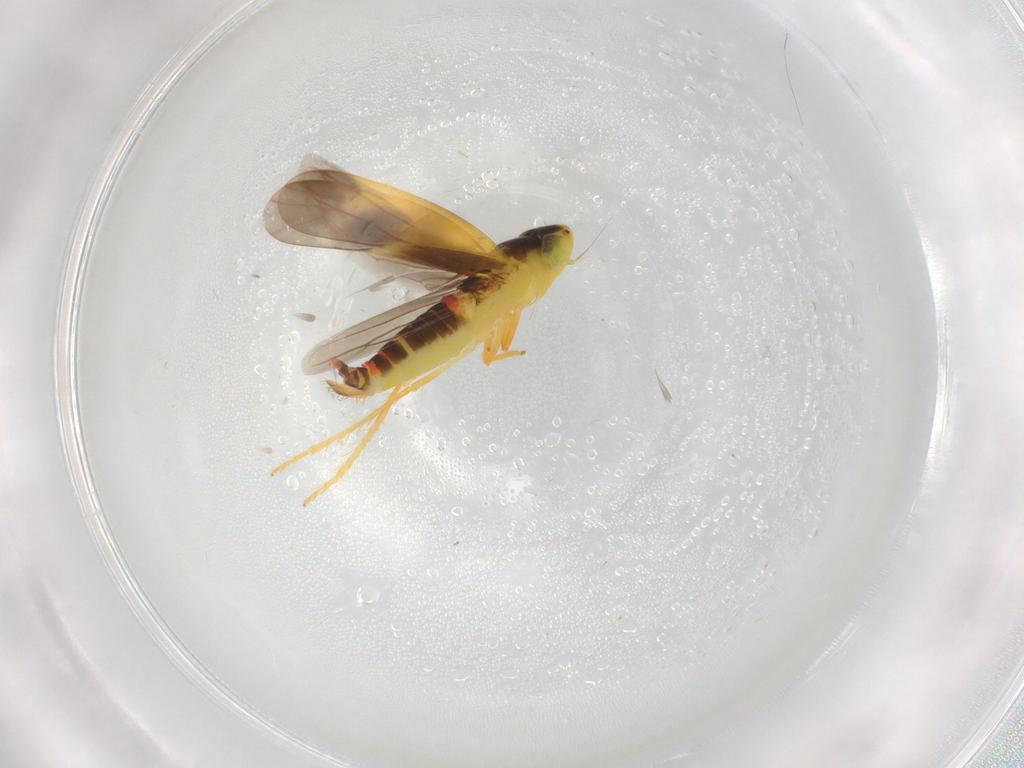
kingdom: Animalia
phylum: Arthropoda
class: Insecta
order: Hemiptera
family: Cicadellidae
